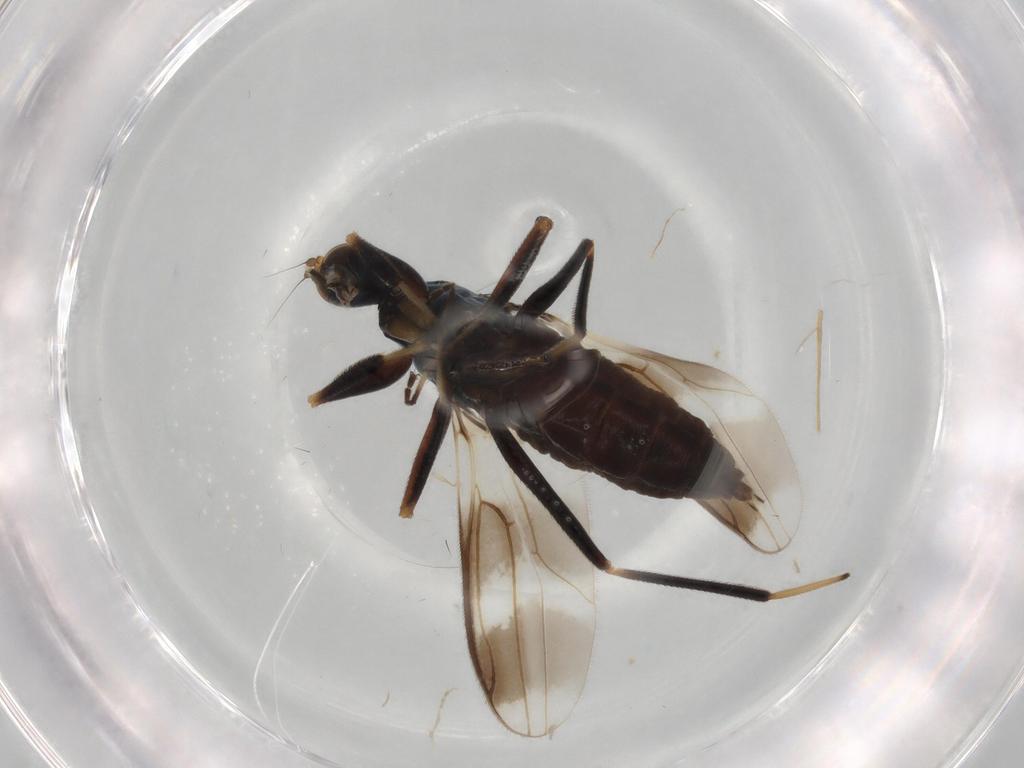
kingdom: Animalia
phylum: Arthropoda
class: Insecta
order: Diptera
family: Hybotidae
